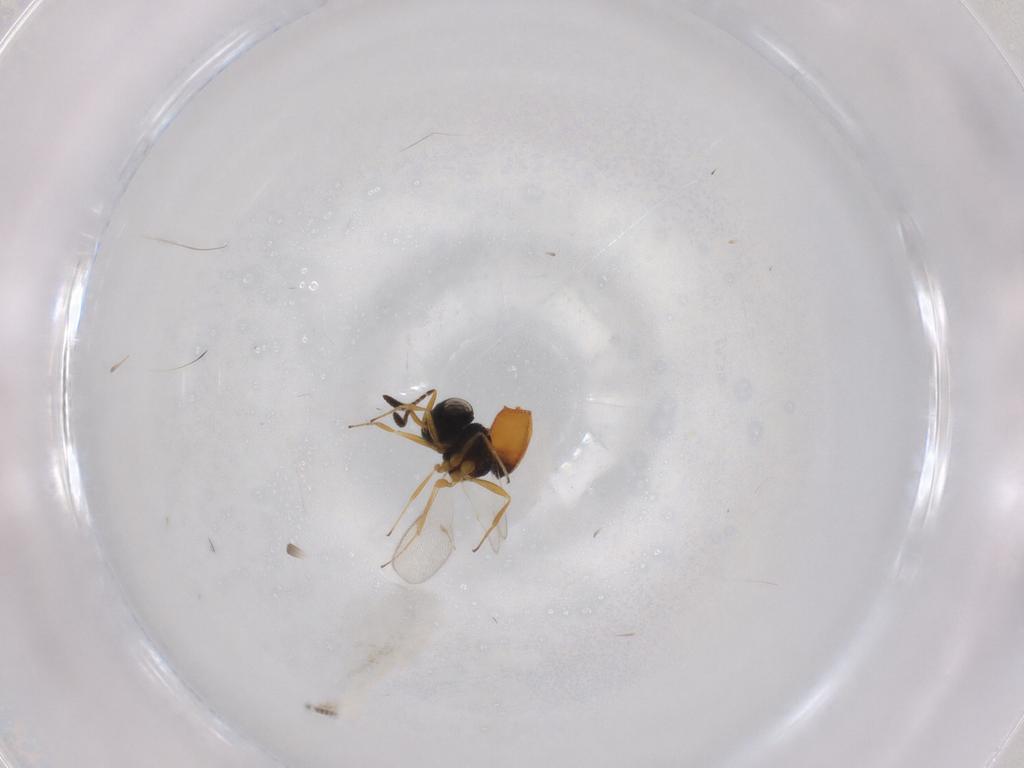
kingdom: Animalia
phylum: Arthropoda
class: Insecta
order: Hymenoptera
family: Scelionidae
